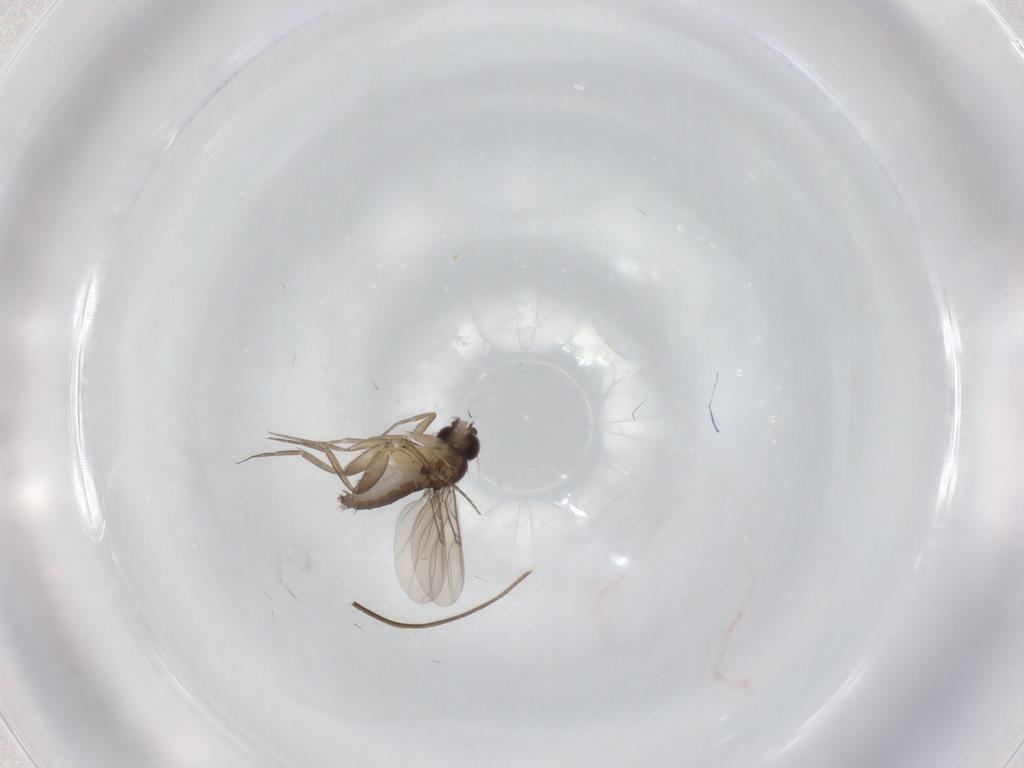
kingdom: Animalia
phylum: Arthropoda
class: Insecta
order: Diptera
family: Phoridae
